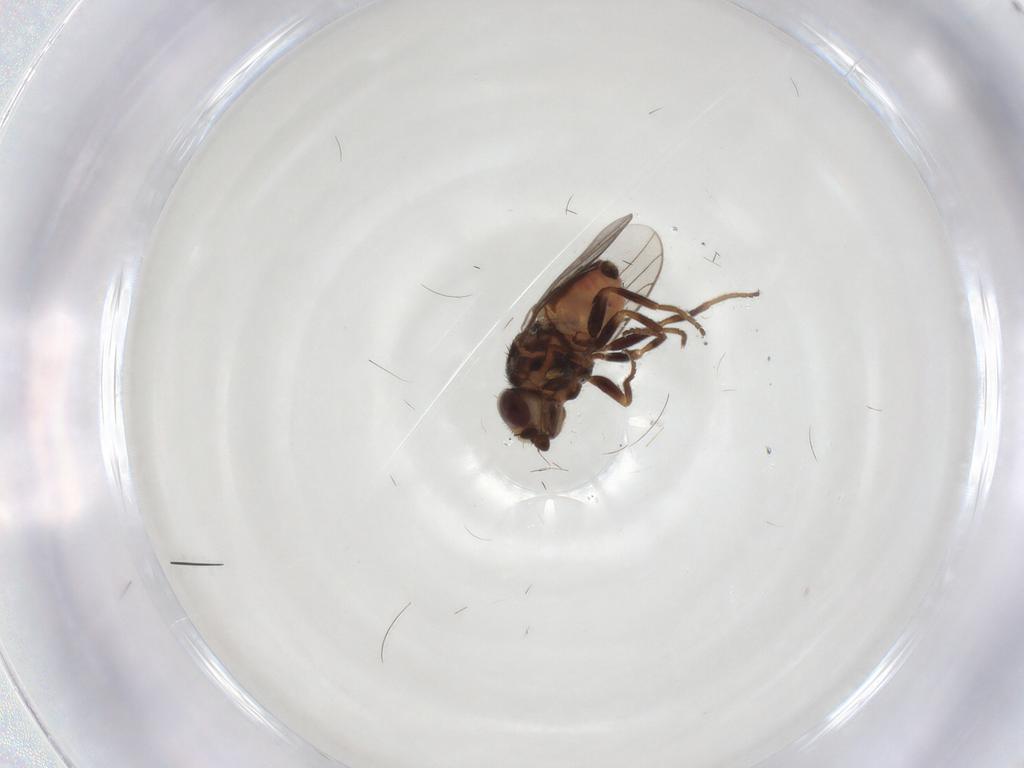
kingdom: Animalia
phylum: Arthropoda
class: Insecta
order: Diptera
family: Chloropidae
